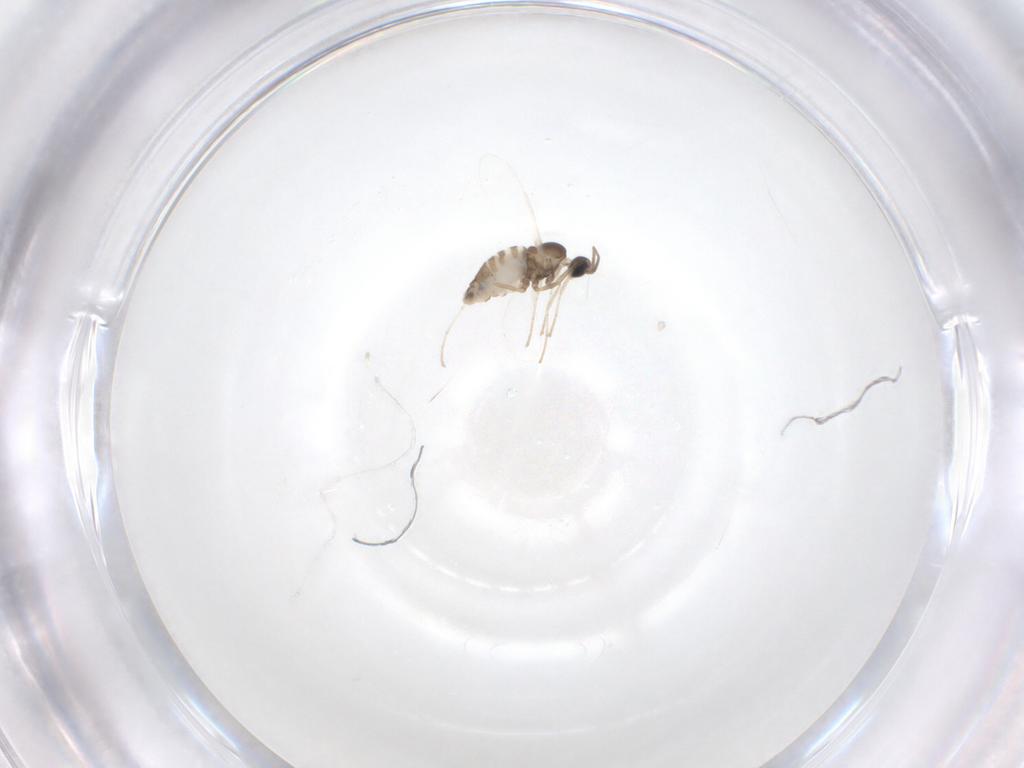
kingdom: Animalia
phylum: Arthropoda
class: Insecta
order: Diptera
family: Cecidomyiidae
